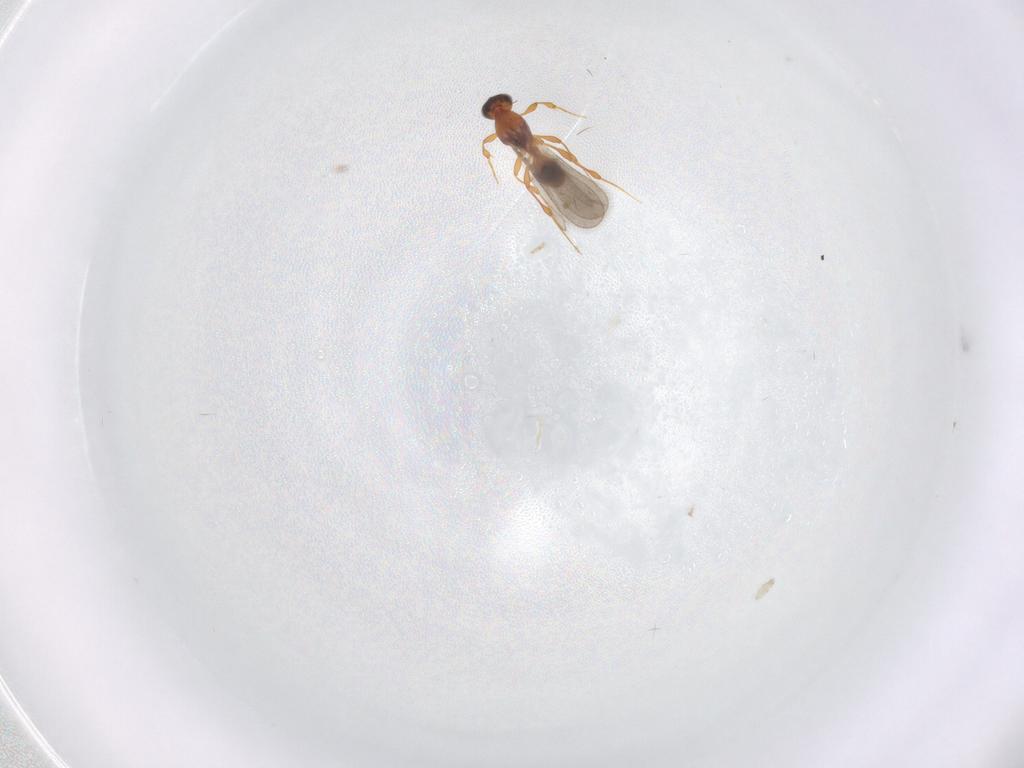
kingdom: Animalia
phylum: Arthropoda
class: Insecta
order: Hymenoptera
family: Platygastridae
